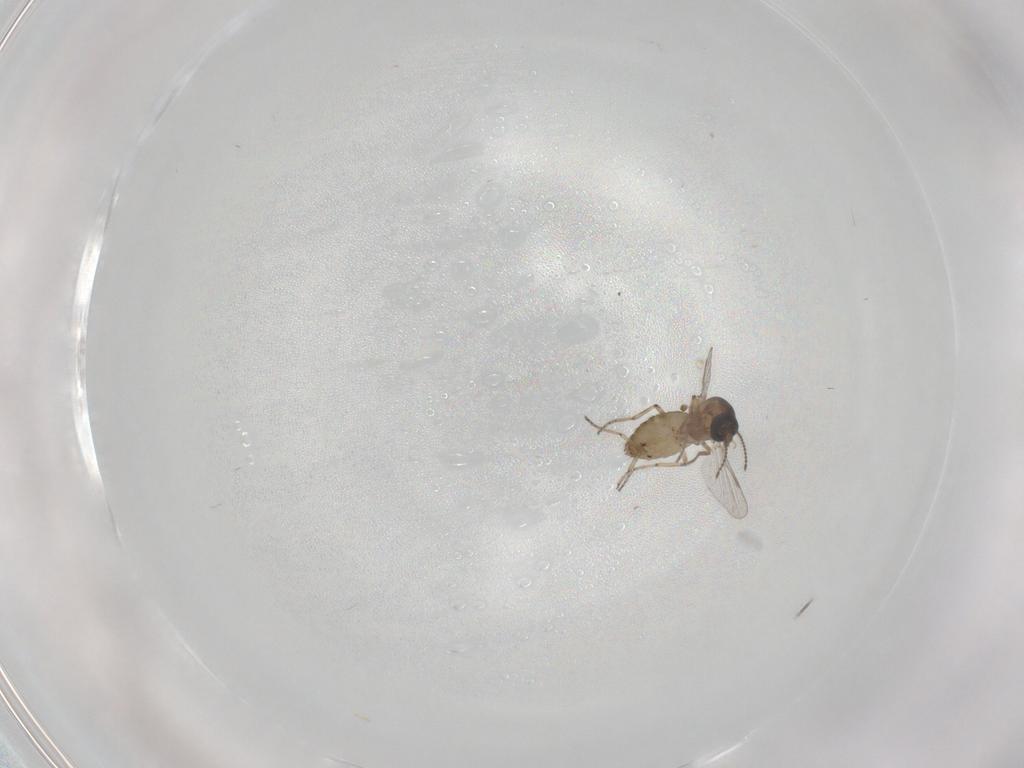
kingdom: Animalia
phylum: Arthropoda
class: Insecta
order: Diptera
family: Ceratopogonidae
